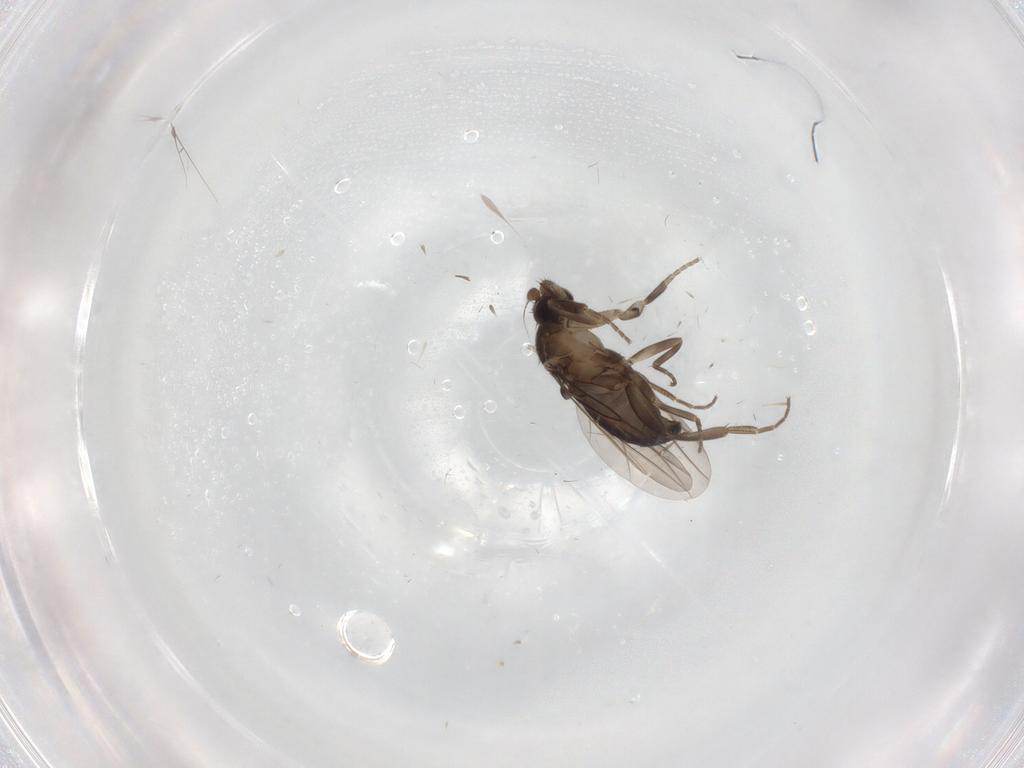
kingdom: Animalia
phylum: Arthropoda
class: Insecta
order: Diptera
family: Phoridae
